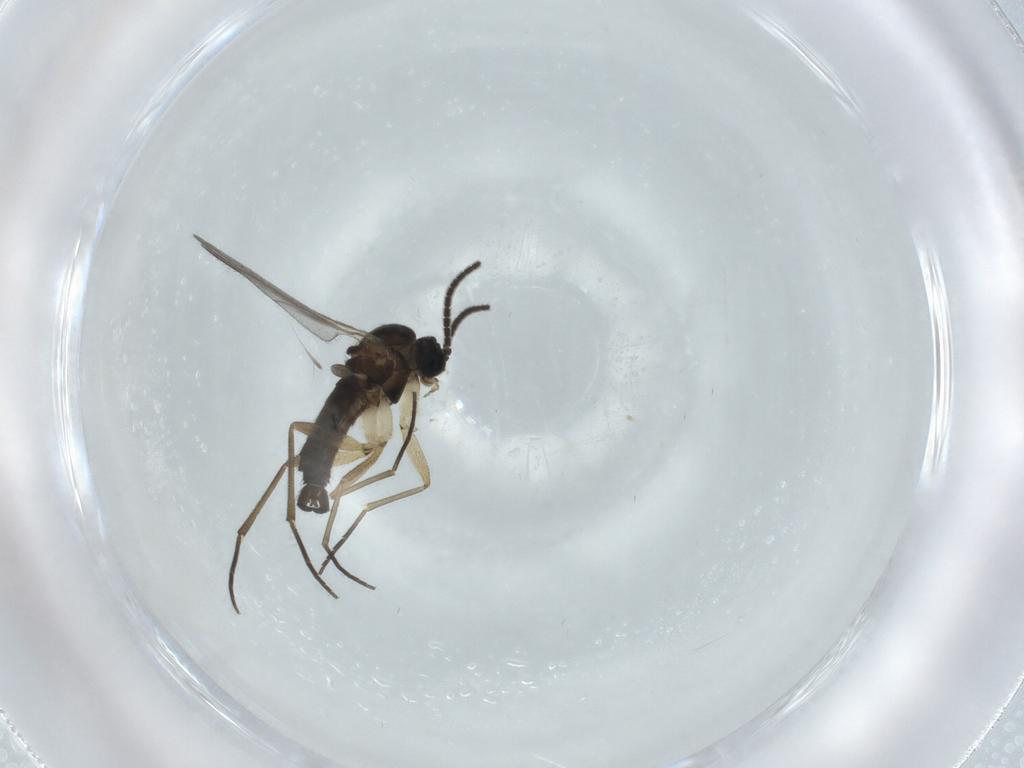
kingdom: Animalia
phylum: Arthropoda
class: Insecta
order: Diptera
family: Sciaridae
